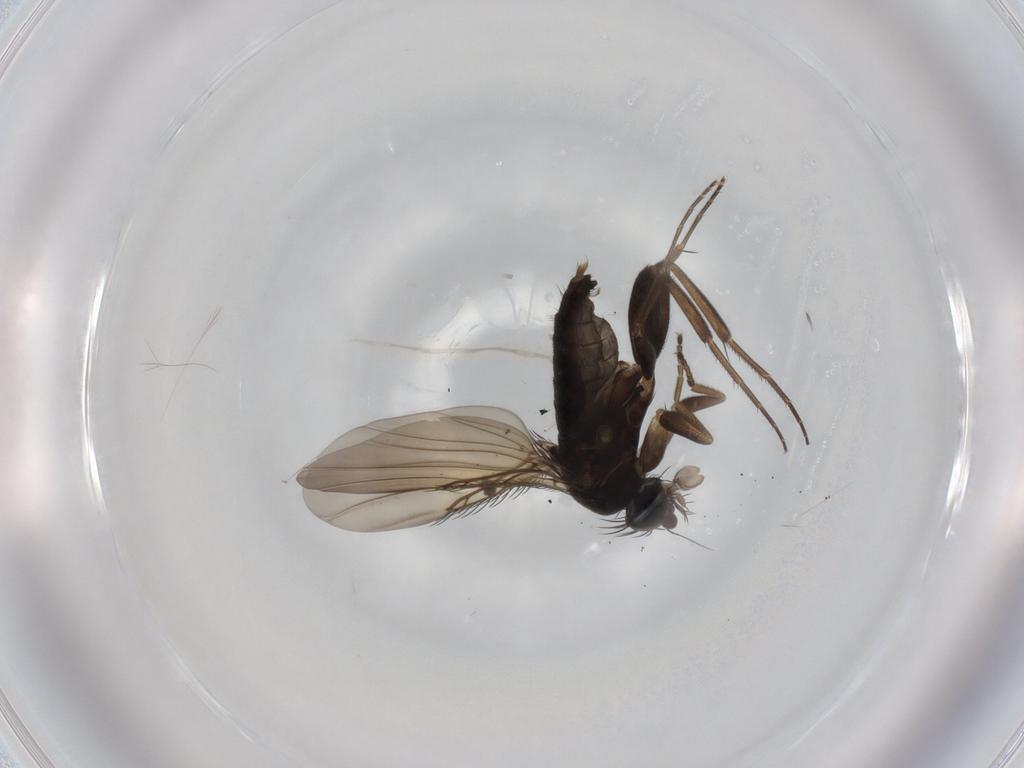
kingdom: Animalia
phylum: Arthropoda
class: Insecta
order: Diptera
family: Phoridae
